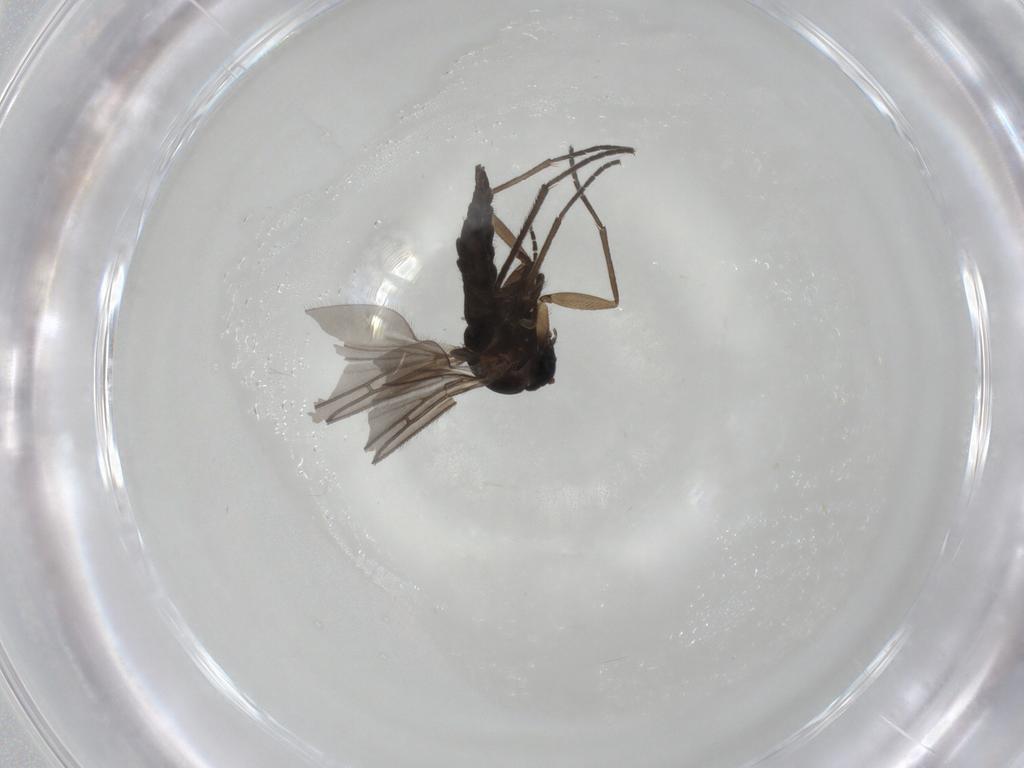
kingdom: Animalia
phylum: Arthropoda
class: Insecta
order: Diptera
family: Sciaridae
